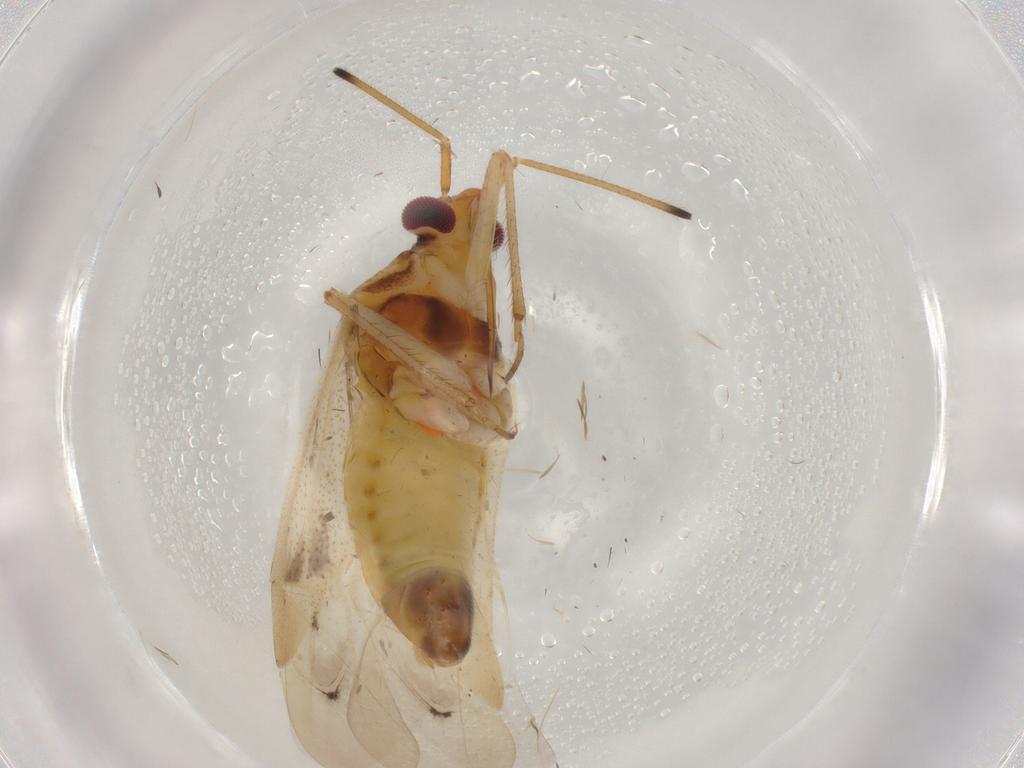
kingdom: Animalia
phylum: Arthropoda
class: Insecta
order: Hemiptera
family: Miridae
